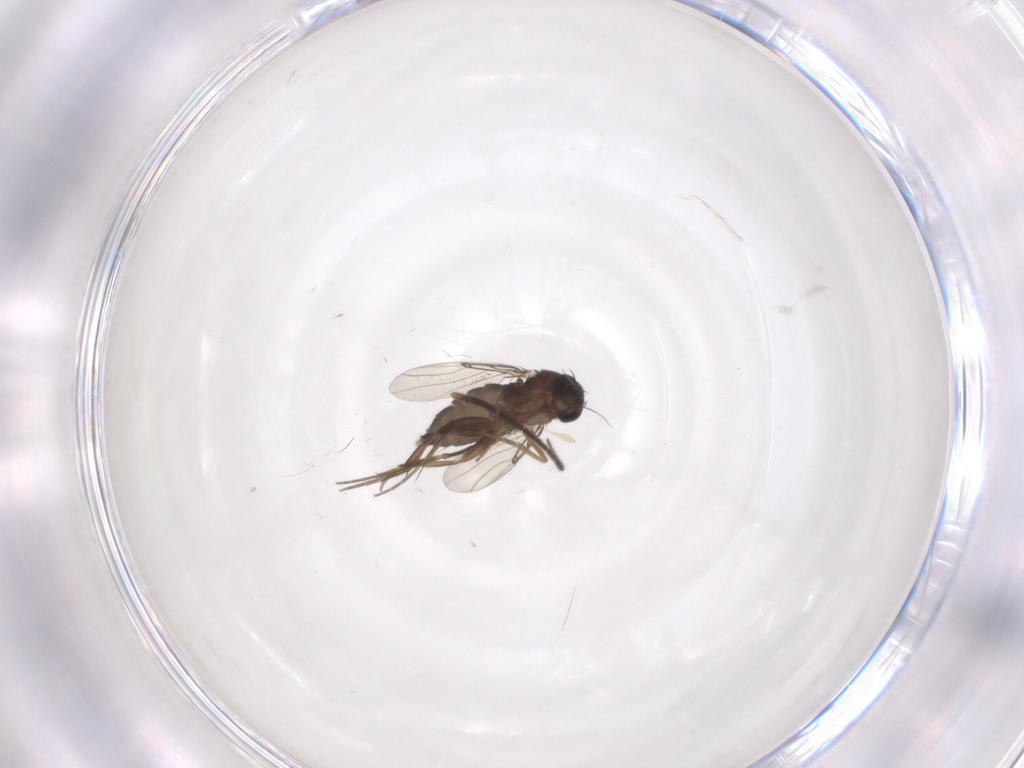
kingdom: Animalia
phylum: Arthropoda
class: Insecta
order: Diptera
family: Phoridae
